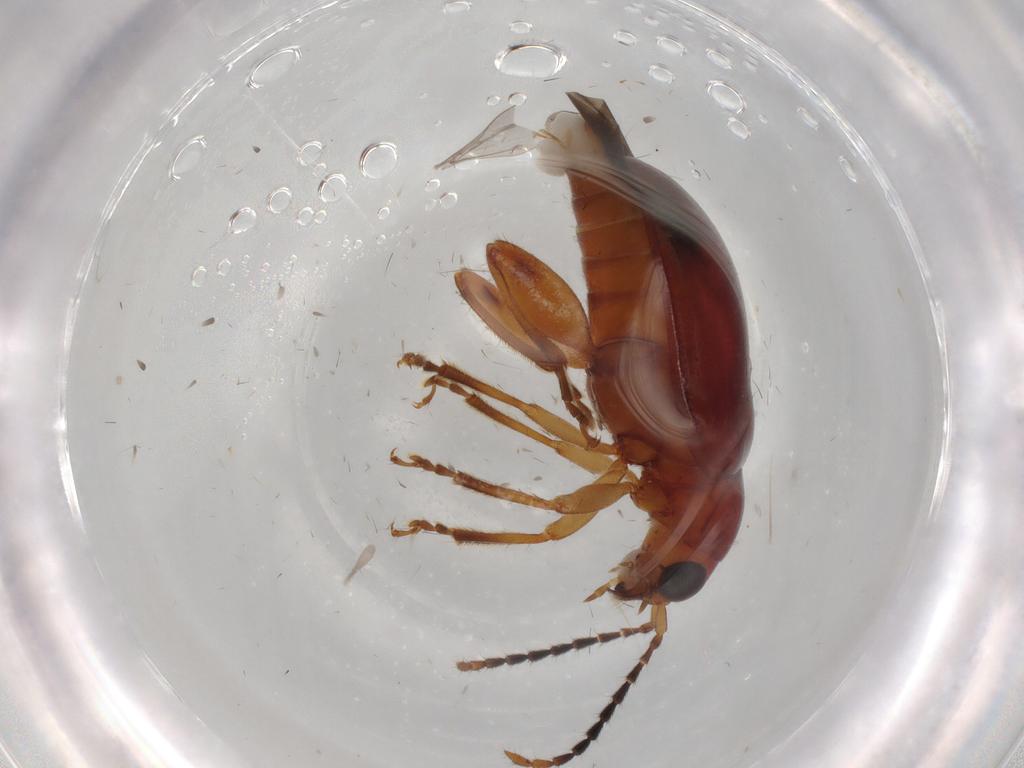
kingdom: Animalia
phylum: Arthropoda
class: Insecta
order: Coleoptera
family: Chrysomelidae
